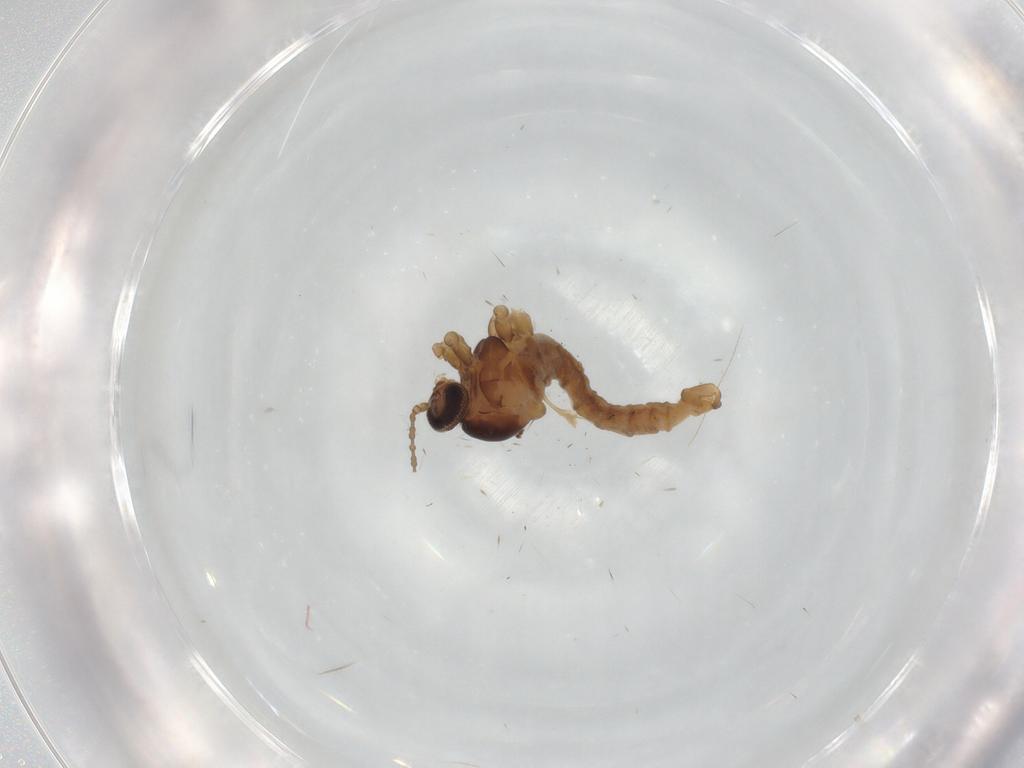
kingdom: Animalia
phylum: Arthropoda
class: Insecta
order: Diptera
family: Cecidomyiidae
